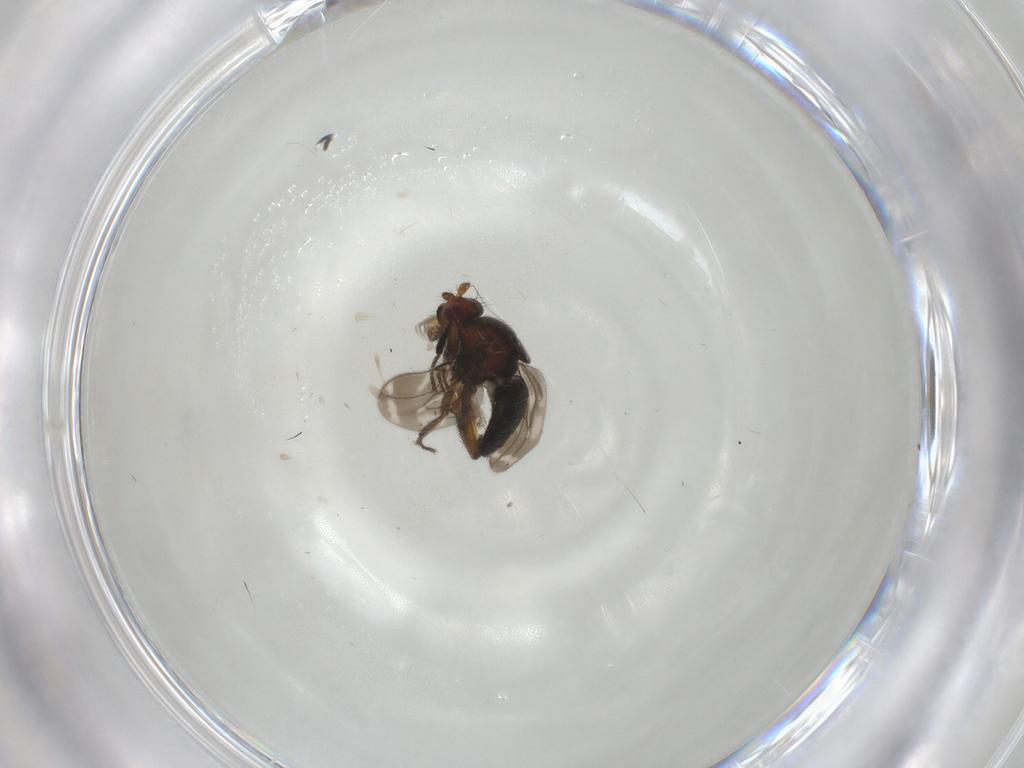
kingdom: Animalia
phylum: Arthropoda
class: Insecta
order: Diptera
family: Sphaeroceridae
